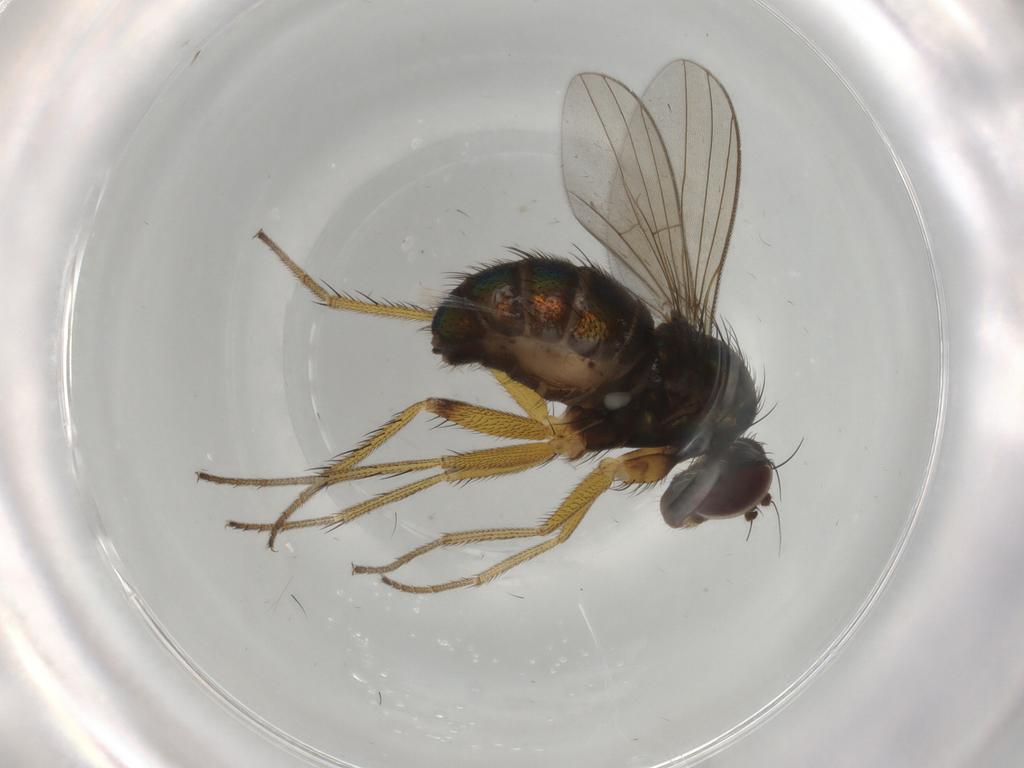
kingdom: Animalia
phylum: Arthropoda
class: Insecta
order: Diptera
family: Dolichopodidae
